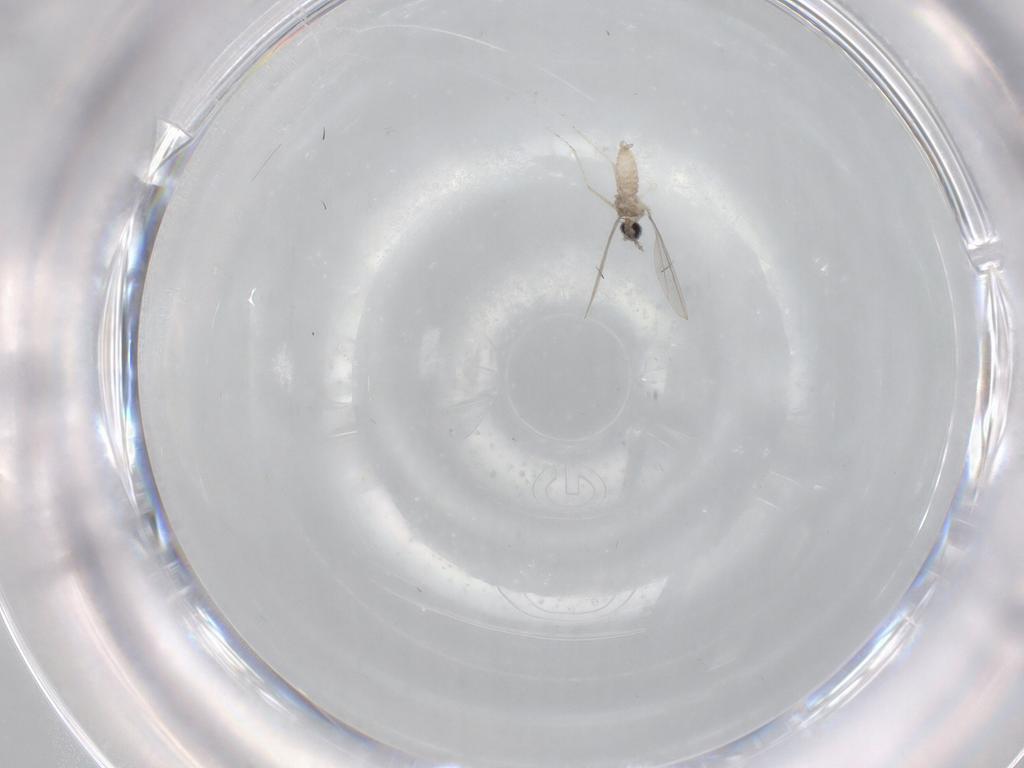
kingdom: Animalia
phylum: Arthropoda
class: Insecta
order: Diptera
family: Cecidomyiidae
